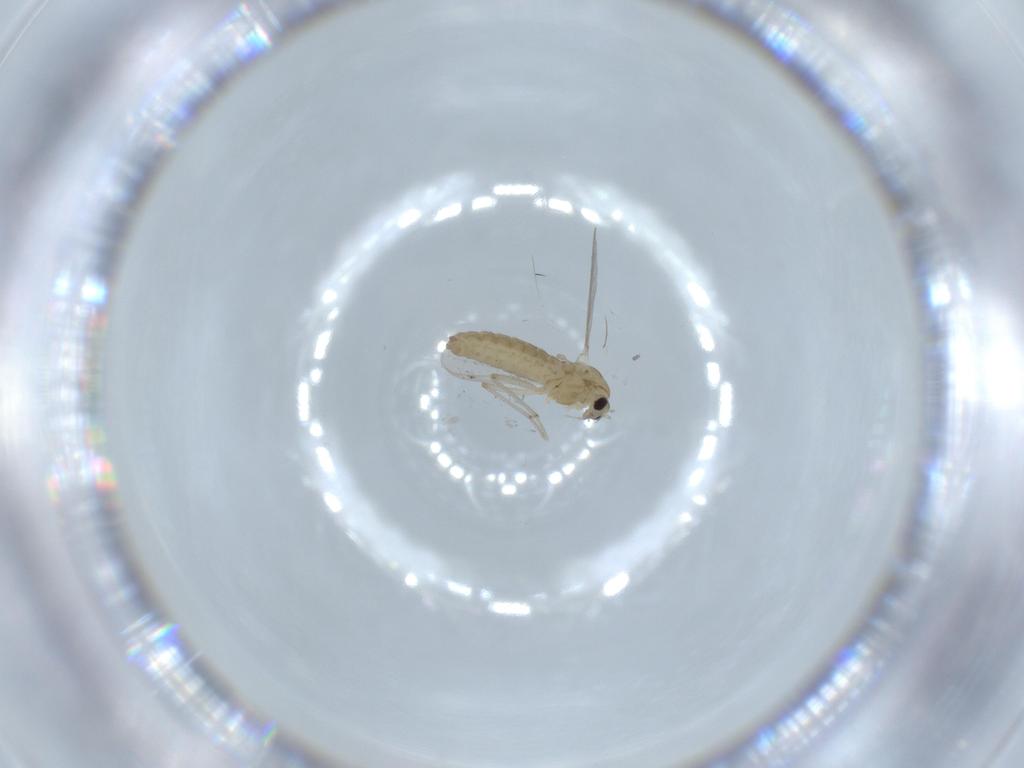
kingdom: Animalia
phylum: Arthropoda
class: Insecta
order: Diptera
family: Chironomidae
